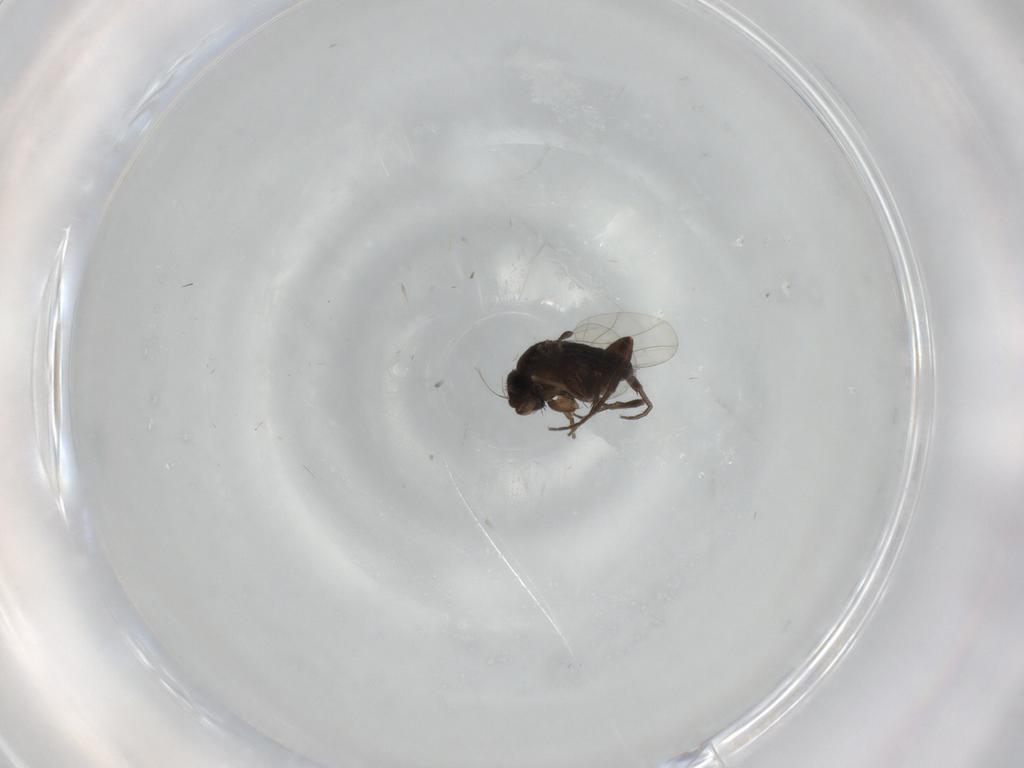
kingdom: Animalia
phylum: Arthropoda
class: Insecta
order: Diptera
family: Phoridae
